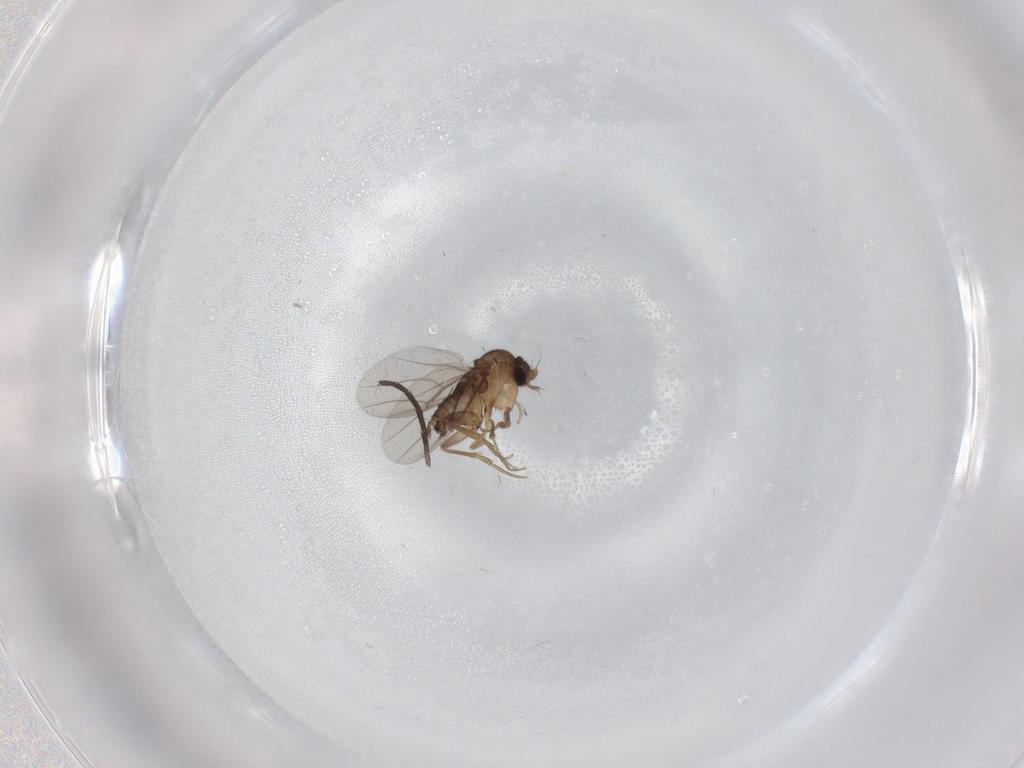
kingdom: Animalia
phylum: Arthropoda
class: Insecta
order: Diptera
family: Sciaridae
